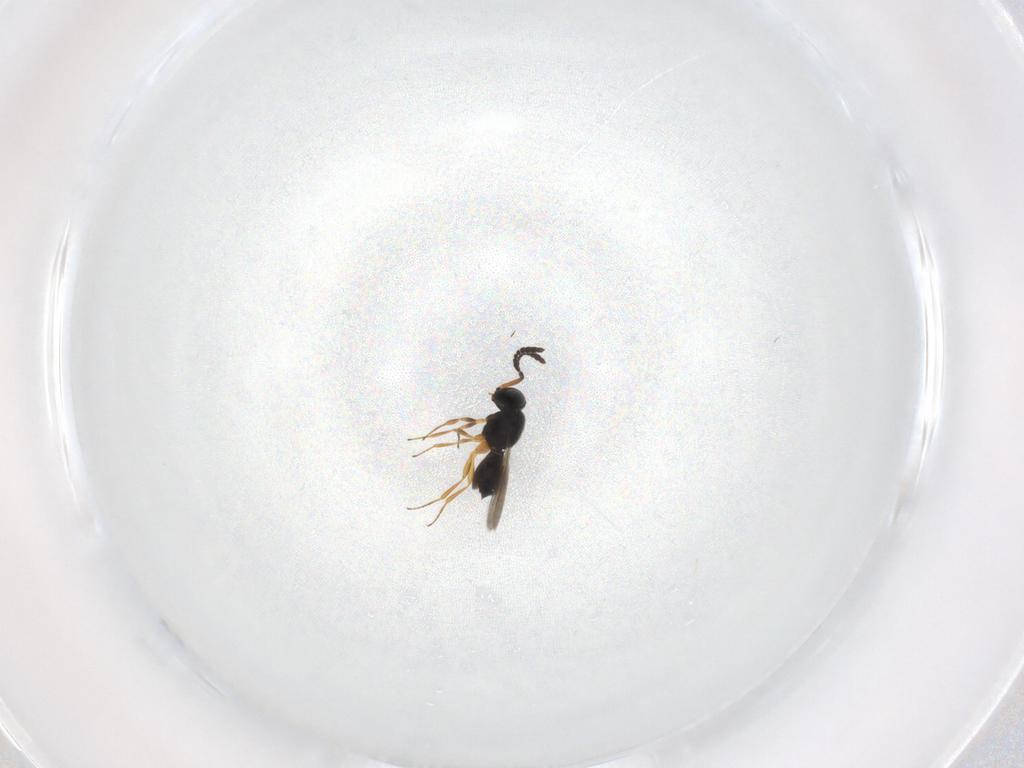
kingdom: Animalia
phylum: Arthropoda
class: Insecta
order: Hymenoptera
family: Scelionidae
